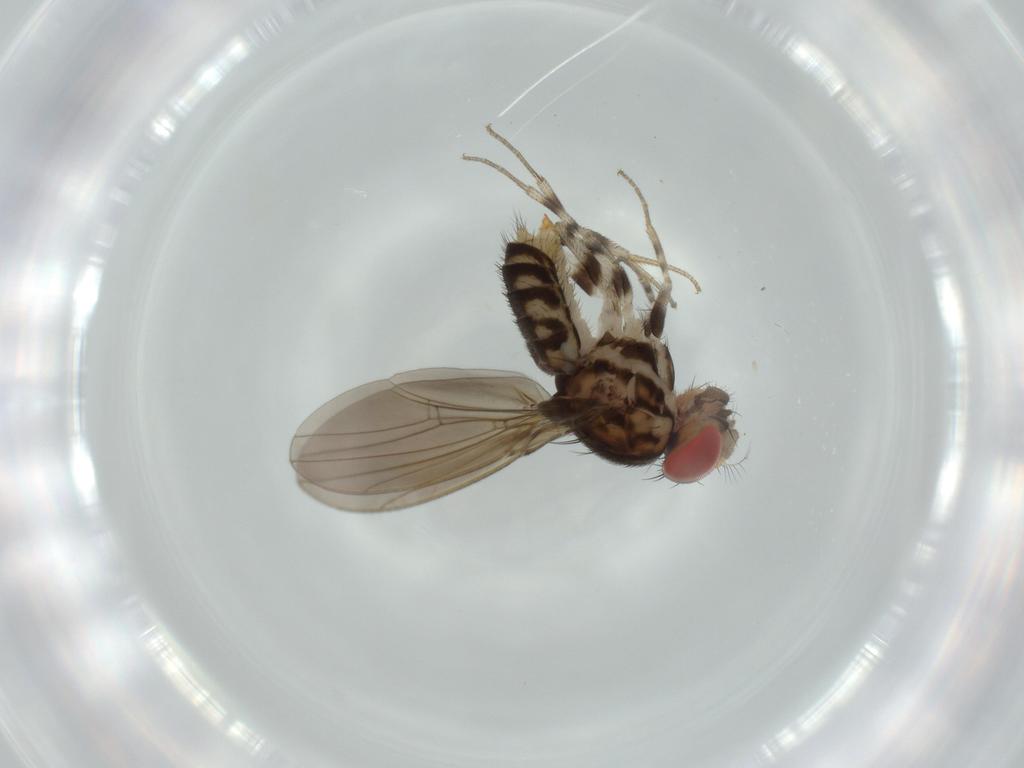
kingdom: Animalia
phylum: Arthropoda
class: Insecta
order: Diptera
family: Drosophilidae
